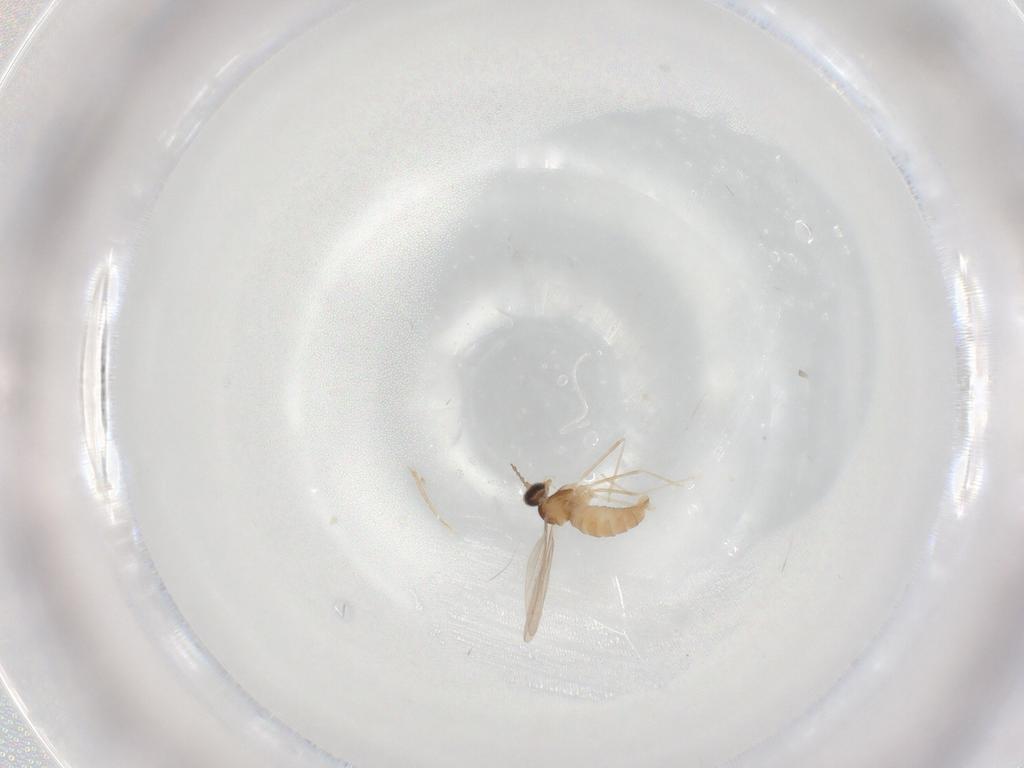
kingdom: Animalia
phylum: Arthropoda
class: Insecta
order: Diptera
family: Cecidomyiidae
